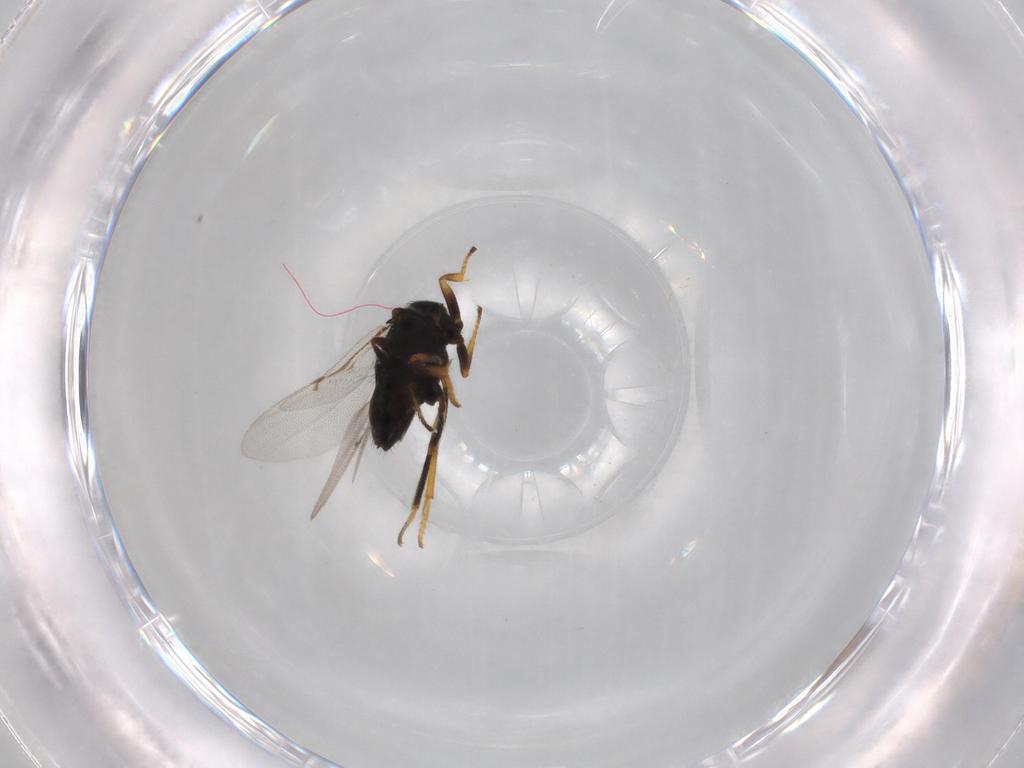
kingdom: Animalia
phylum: Arthropoda
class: Insecta
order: Hymenoptera
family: Encyrtidae
